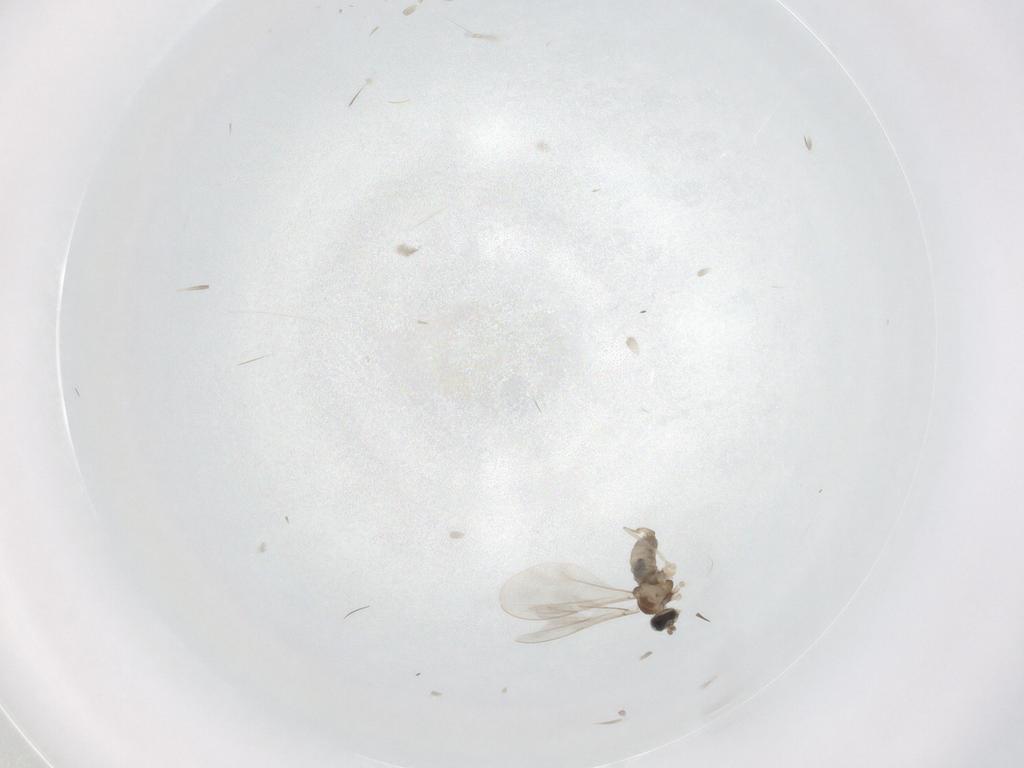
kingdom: Animalia
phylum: Arthropoda
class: Insecta
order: Diptera
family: Cecidomyiidae
